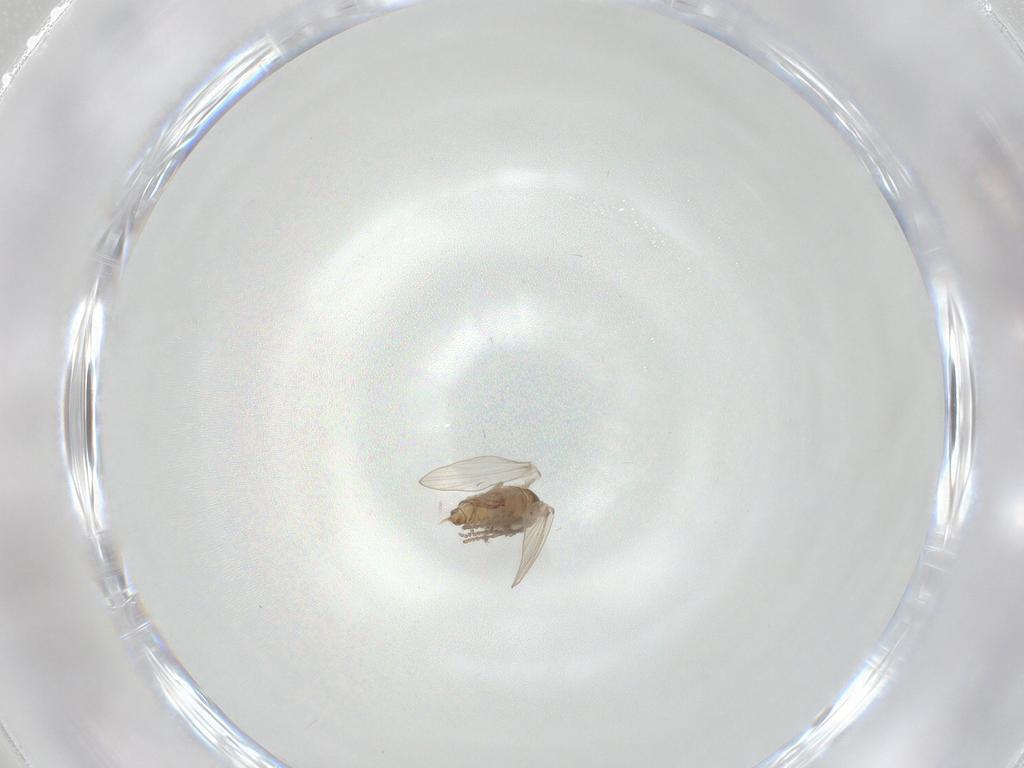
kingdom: Animalia
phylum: Arthropoda
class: Insecta
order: Diptera
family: Psychodidae
